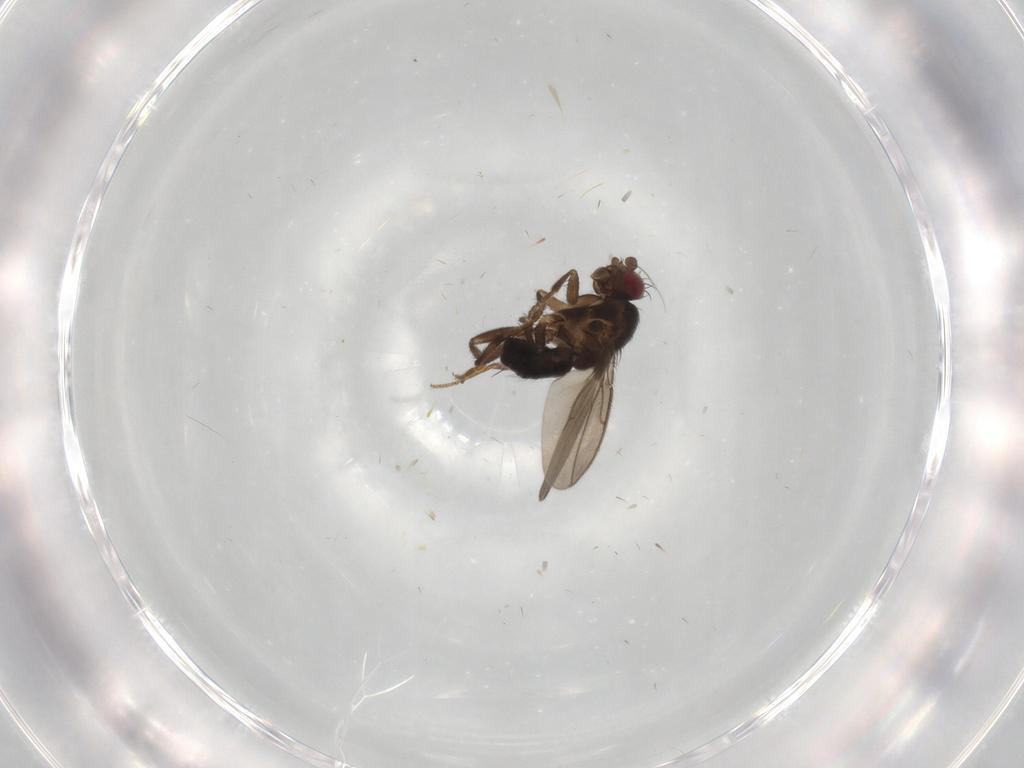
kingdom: Animalia
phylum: Arthropoda
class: Insecta
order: Diptera
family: Sphaeroceridae
